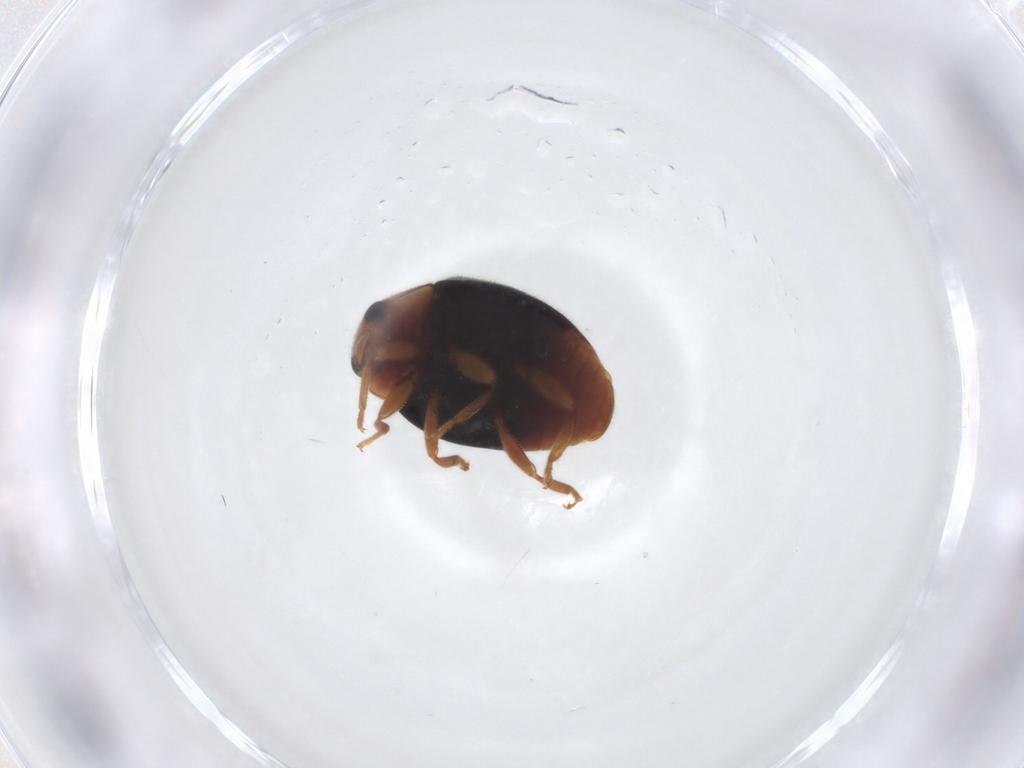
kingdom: Animalia
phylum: Arthropoda
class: Insecta
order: Coleoptera
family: Coccinellidae
